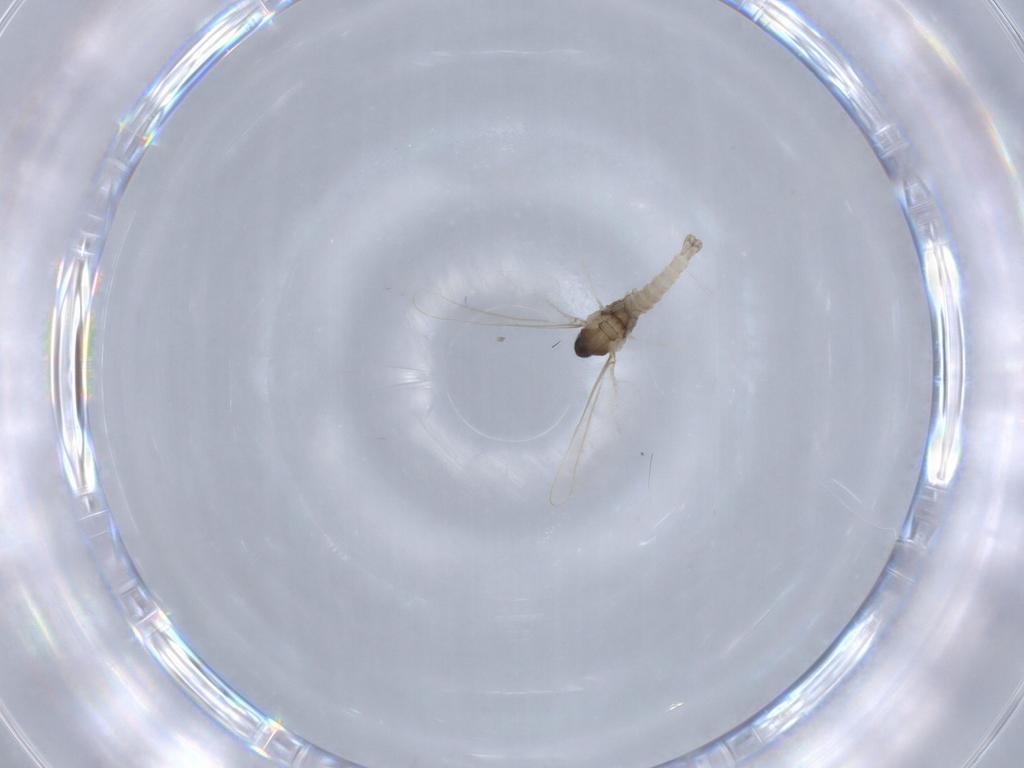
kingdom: Animalia
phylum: Arthropoda
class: Insecta
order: Diptera
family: Cecidomyiidae
